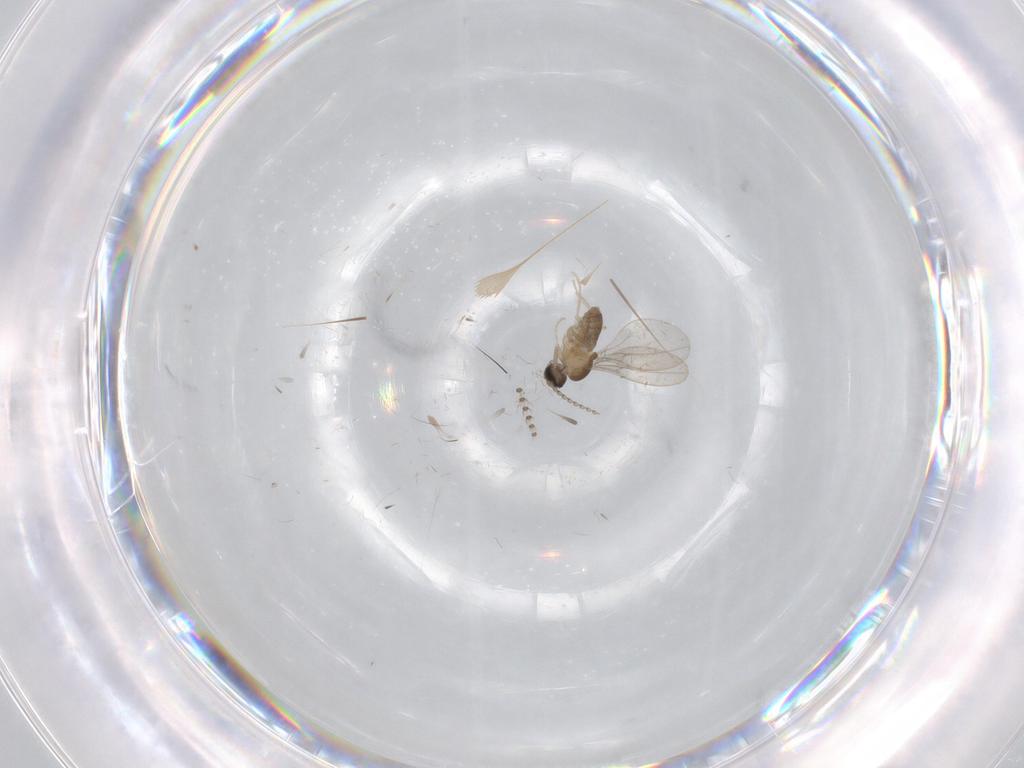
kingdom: Animalia
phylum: Arthropoda
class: Insecta
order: Diptera
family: Cecidomyiidae
